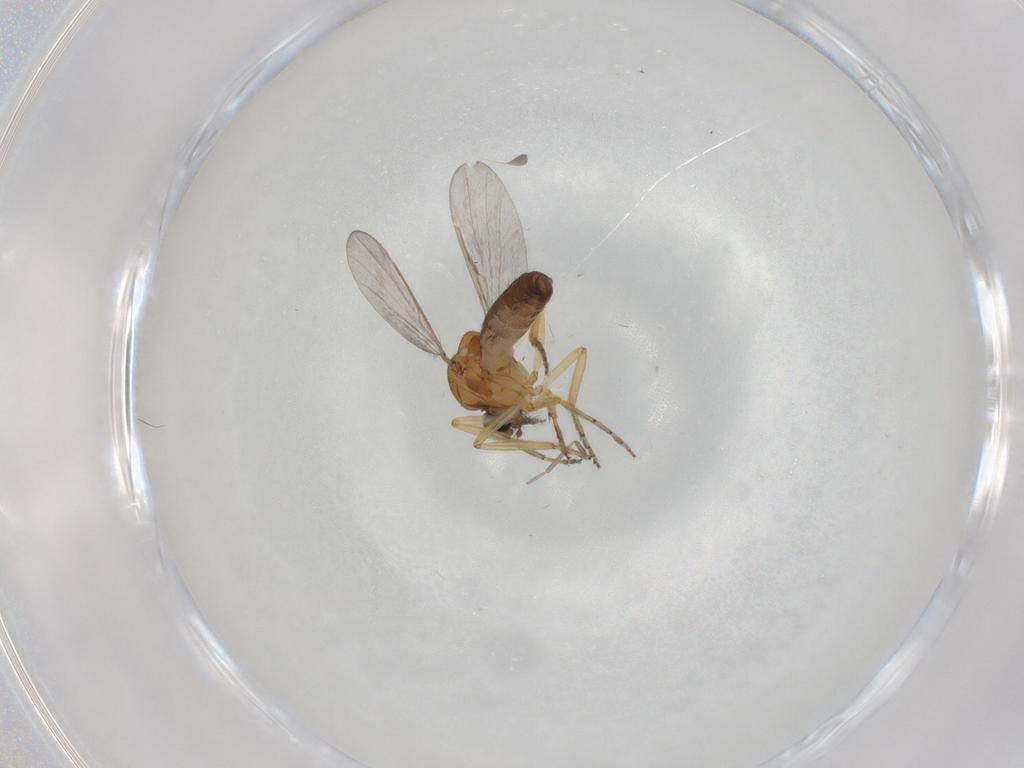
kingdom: Animalia
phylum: Arthropoda
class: Insecta
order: Diptera
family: Ceratopogonidae
